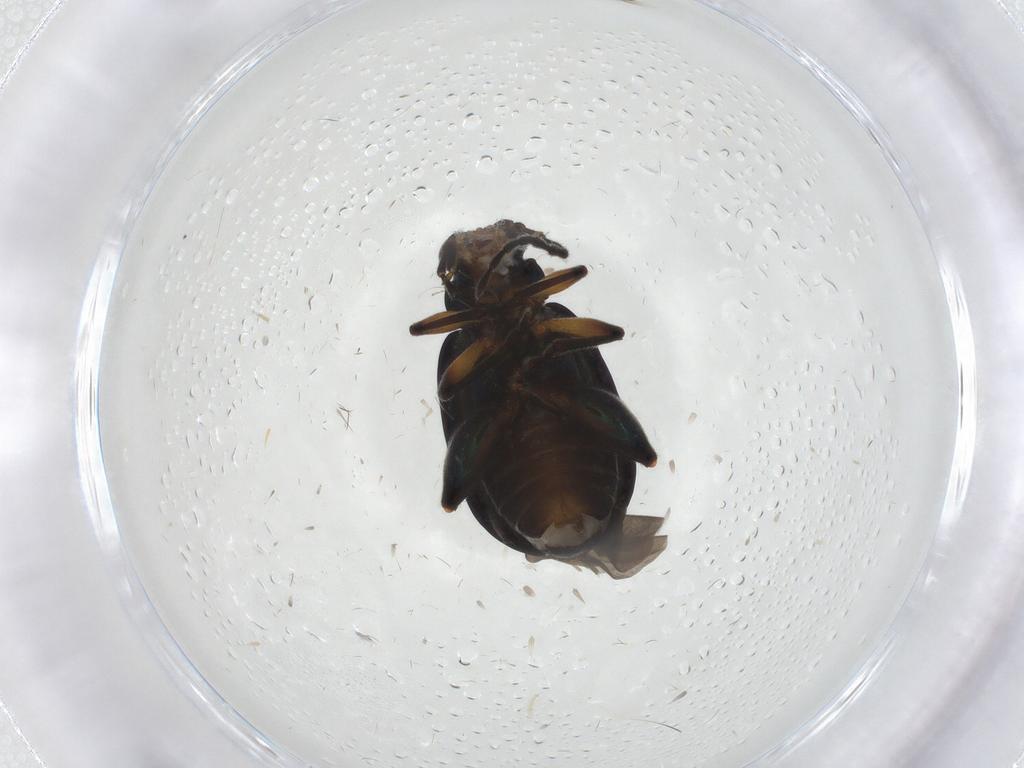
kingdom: Animalia
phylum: Arthropoda
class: Insecta
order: Coleoptera
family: Chrysomelidae
